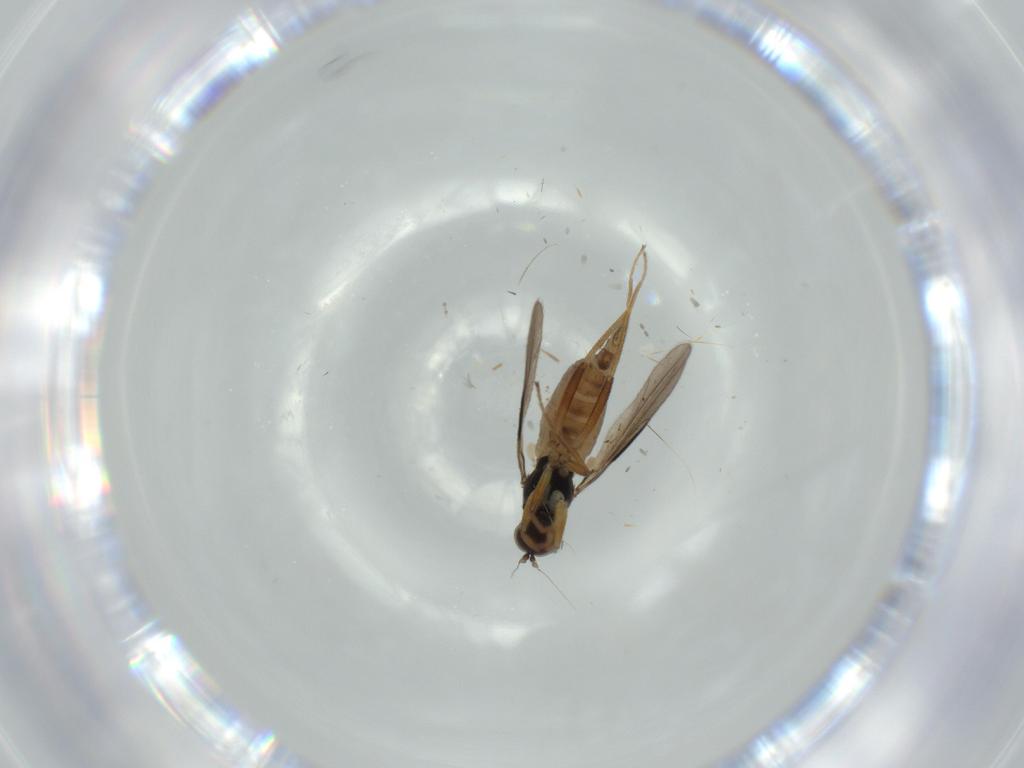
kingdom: Animalia
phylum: Arthropoda
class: Insecta
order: Diptera
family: Hybotidae
